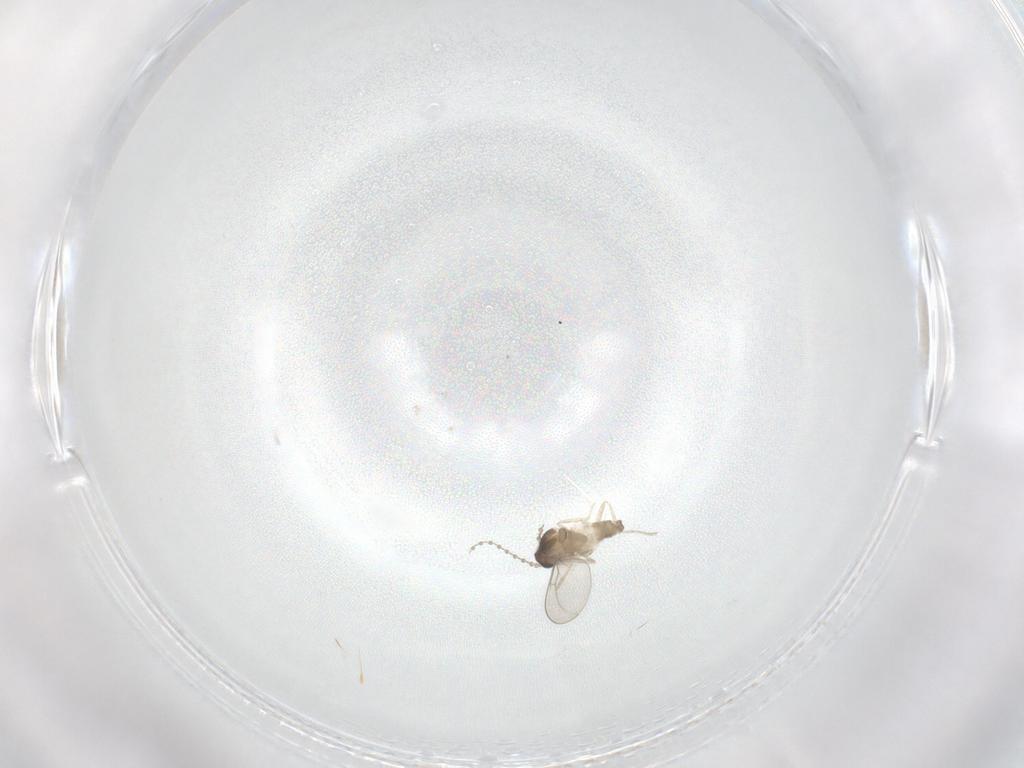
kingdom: Animalia
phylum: Arthropoda
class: Insecta
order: Diptera
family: Cecidomyiidae
